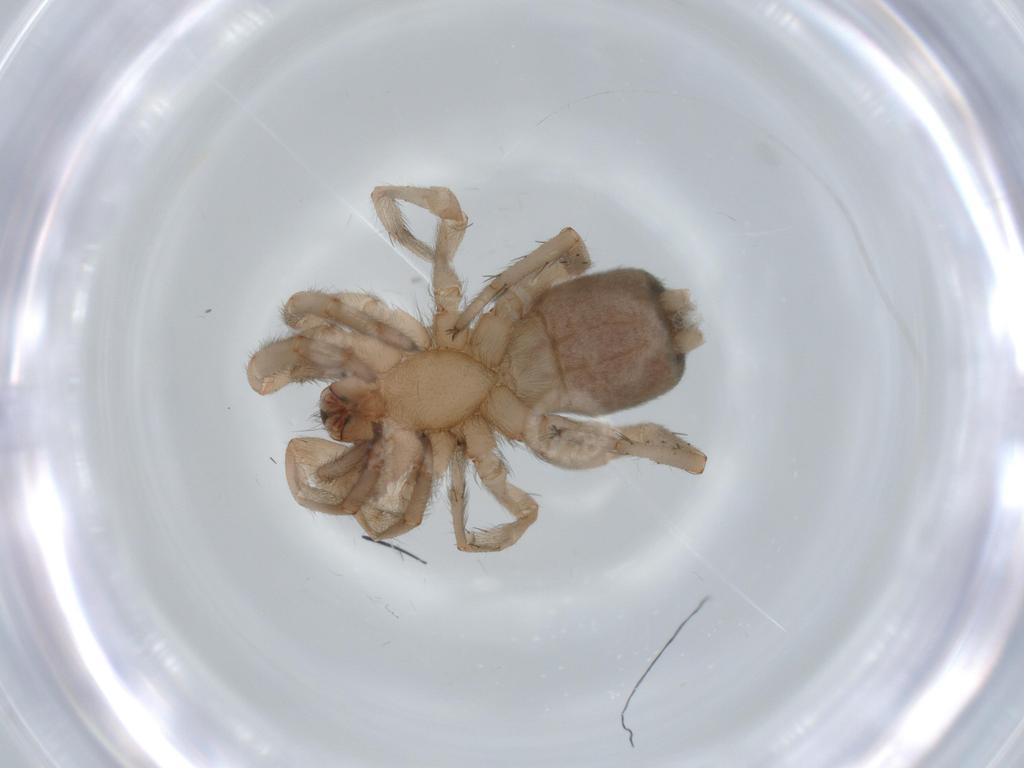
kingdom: Animalia
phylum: Arthropoda
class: Arachnida
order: Araneae
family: Gnaphosidae
